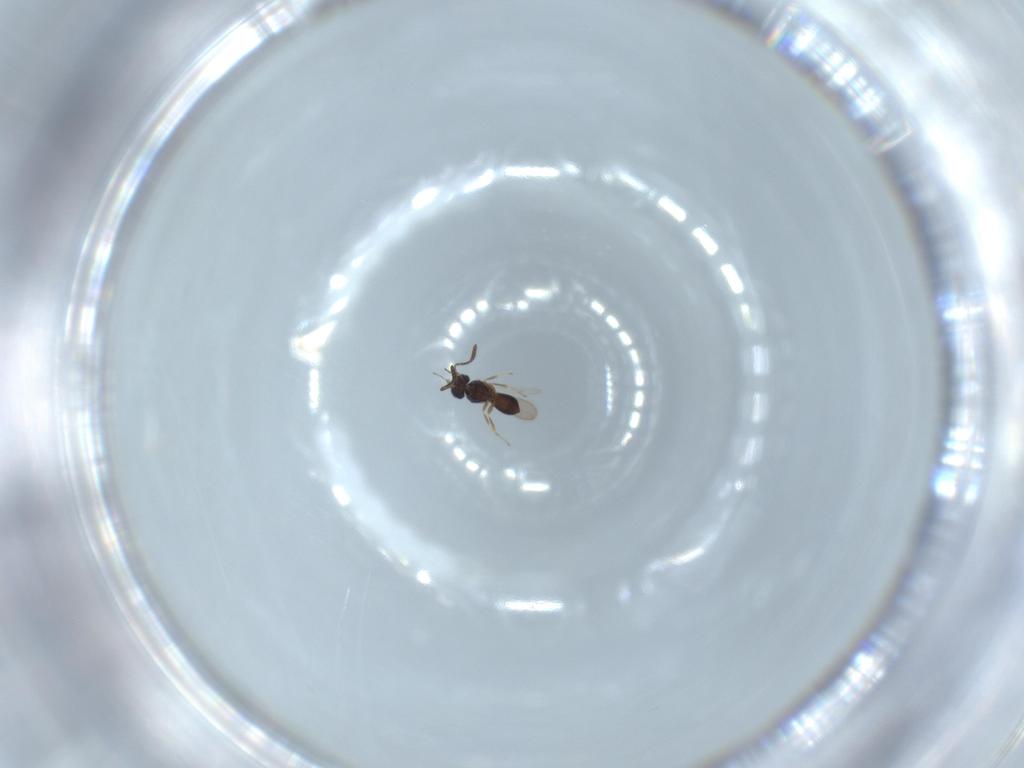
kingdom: Animalia
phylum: Arthropoda
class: Insecta
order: Hymenoptera
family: Scelionidae
